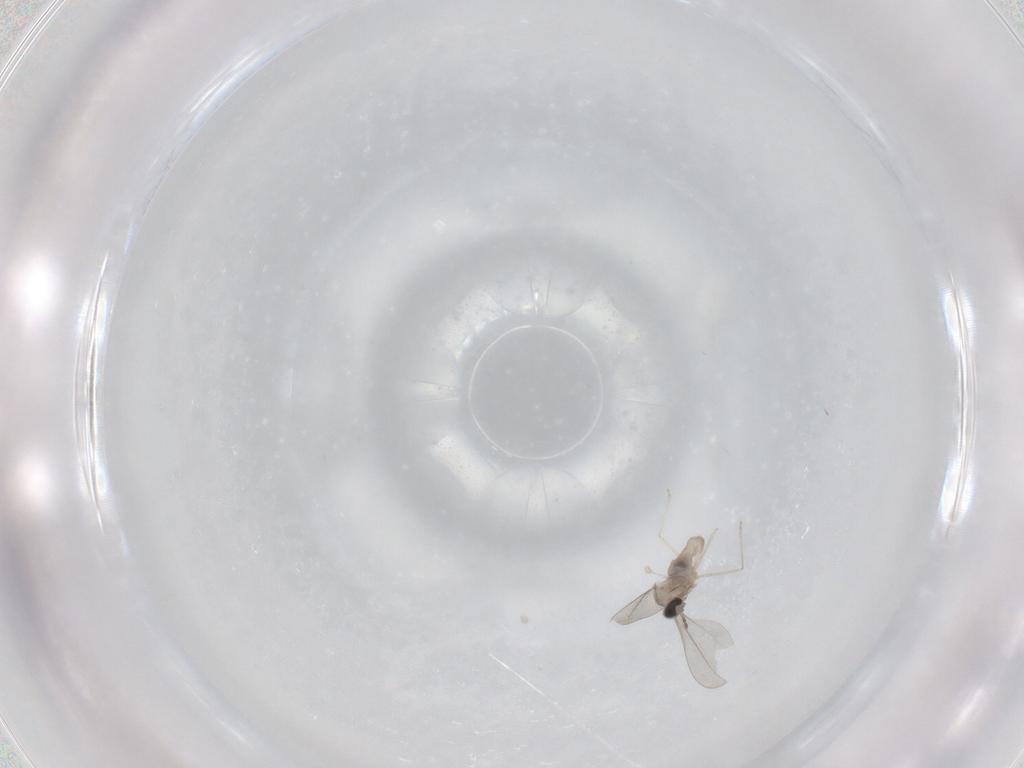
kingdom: Animalia
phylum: Arthropoda
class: Insecta
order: Diptera
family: Cecidomyiidae
